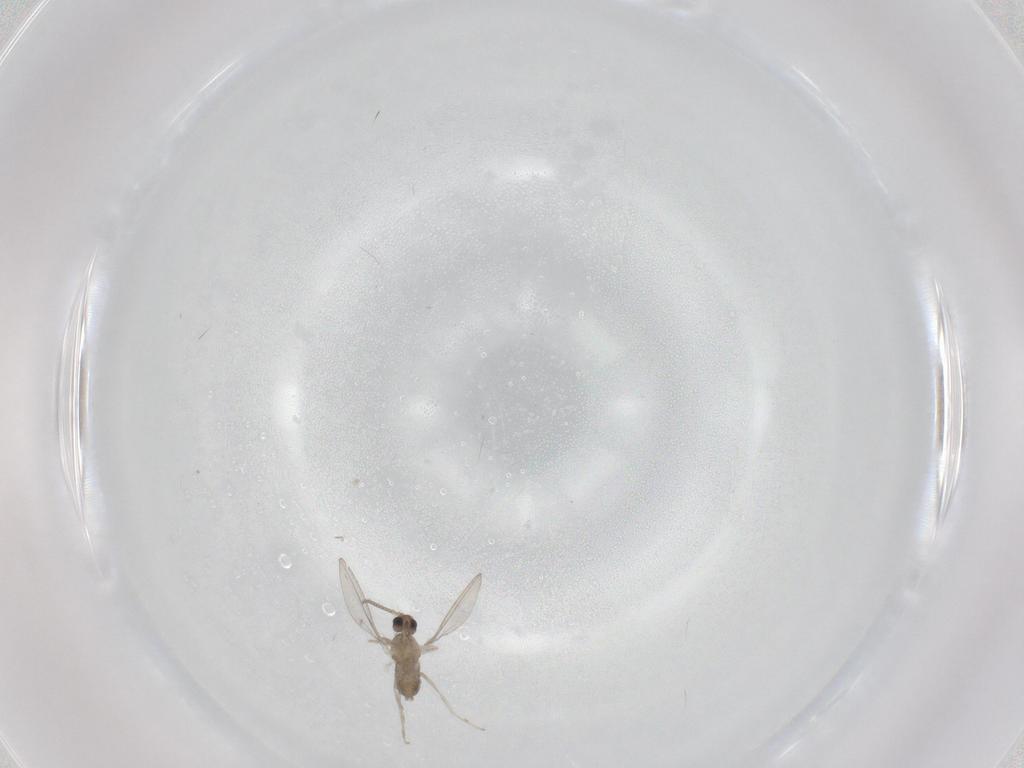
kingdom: Animalia
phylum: Arthropoda
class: Insecta
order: Diptera
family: Cecidomyiidae
